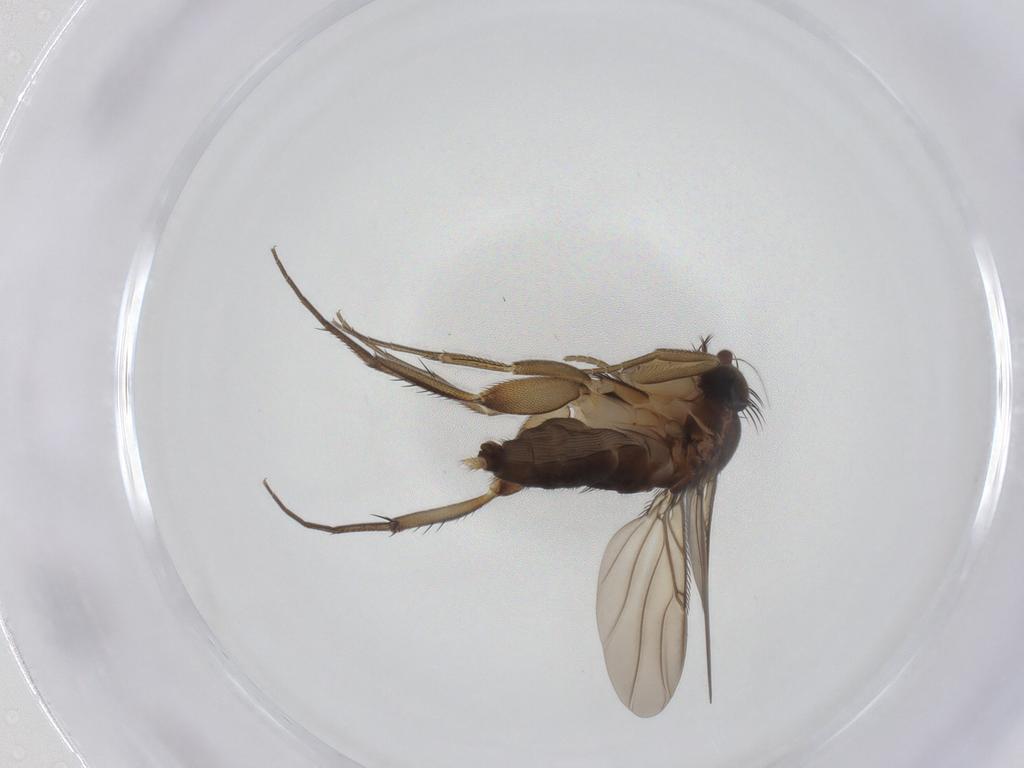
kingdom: Animalia
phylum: Arthropoda
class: Insecta
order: Diptera
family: Phoridae
